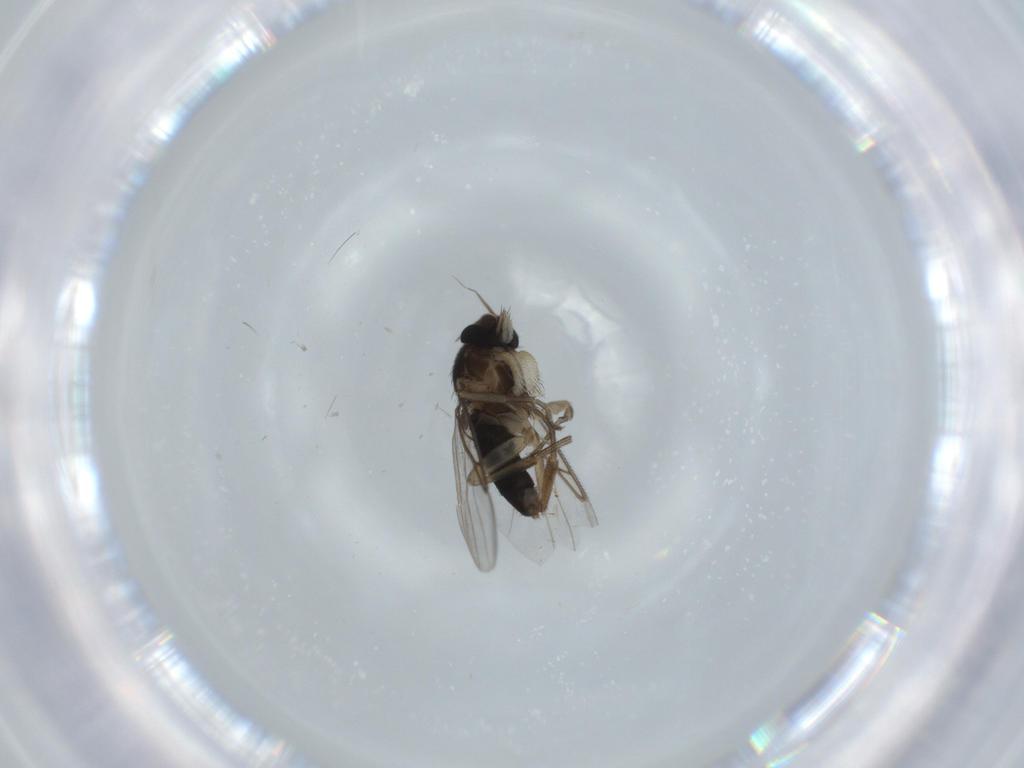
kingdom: Animalia
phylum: Arthropoda
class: Insecta
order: Diptera
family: Phoridae
